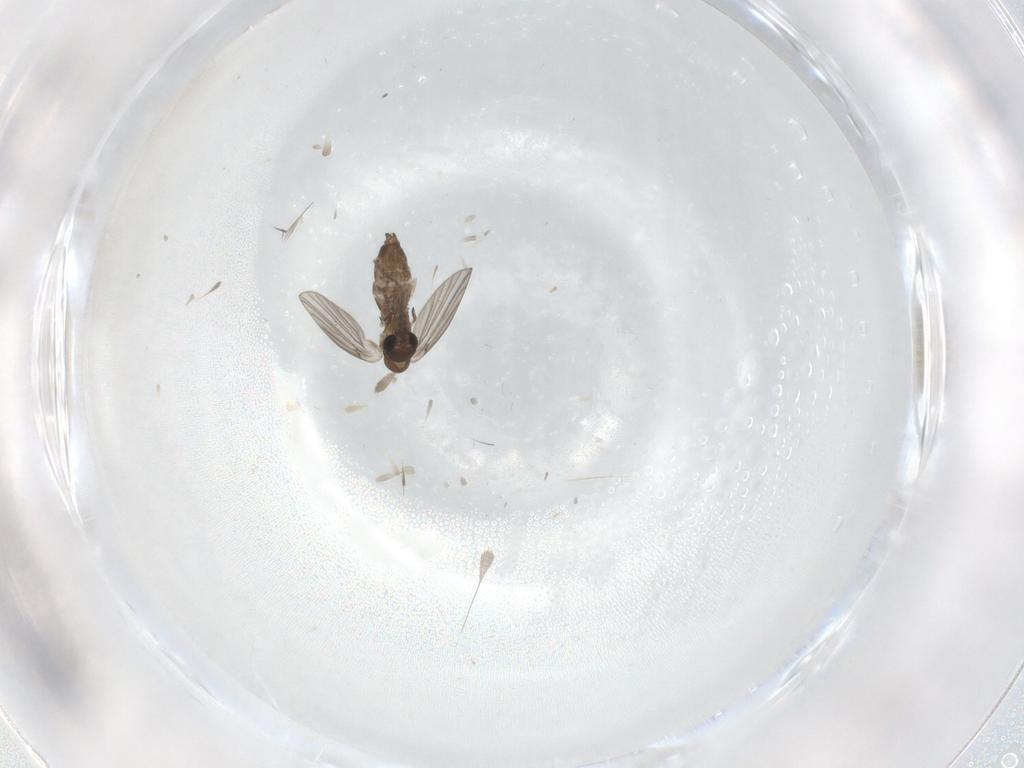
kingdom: Animalia
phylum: Arthropoda
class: Insecta
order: Diptera
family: Psychodidae
